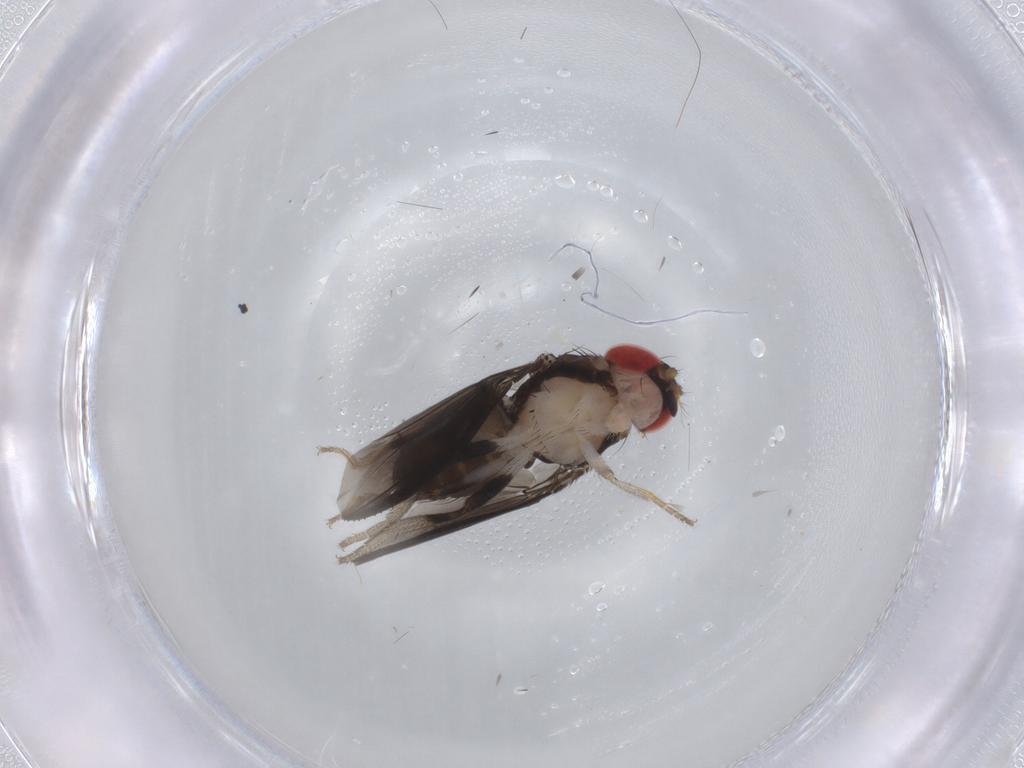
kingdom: Animalia
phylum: Arthropoda
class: Insecta
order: Diptera
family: Drosophilidae
